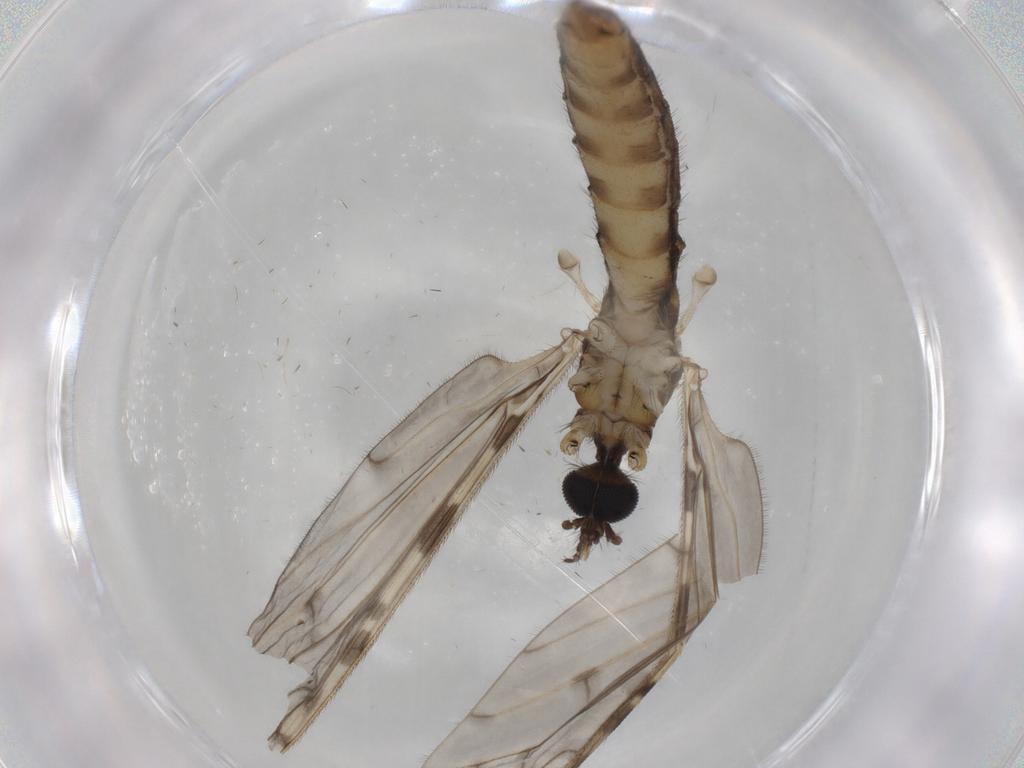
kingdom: Animalia
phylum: Arthropoda
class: Insecta
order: Diptera
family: Limoniidae
